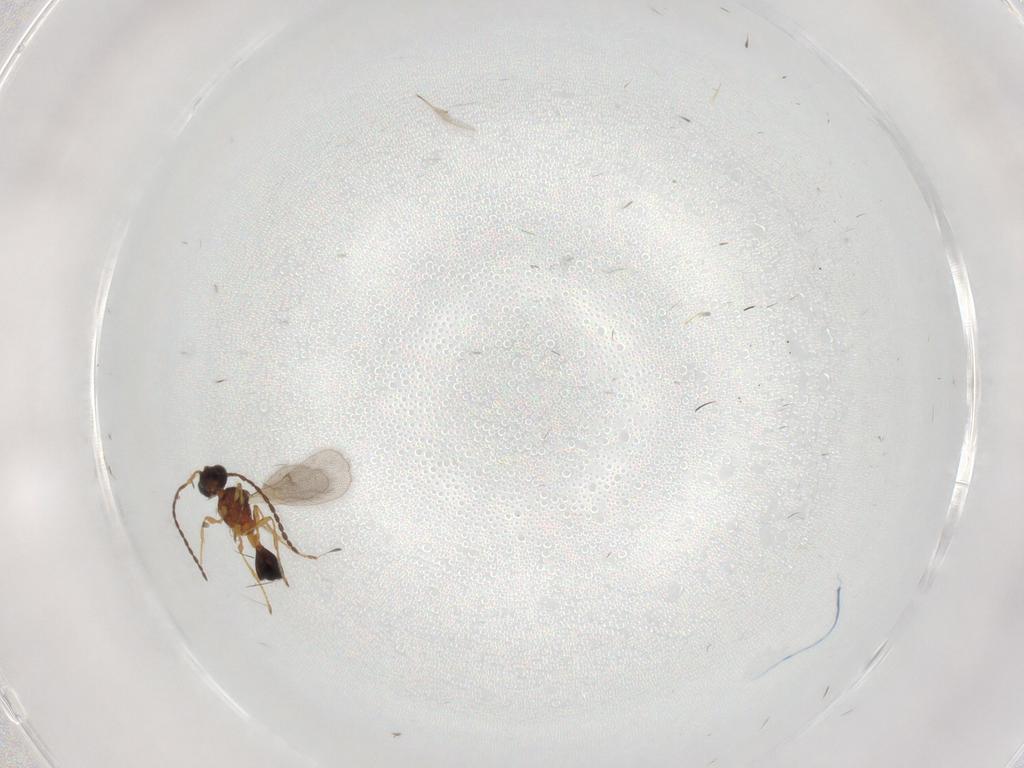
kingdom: Animalia
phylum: Arthropoda
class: Insecta
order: Hymenoptera
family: Diapriidae
